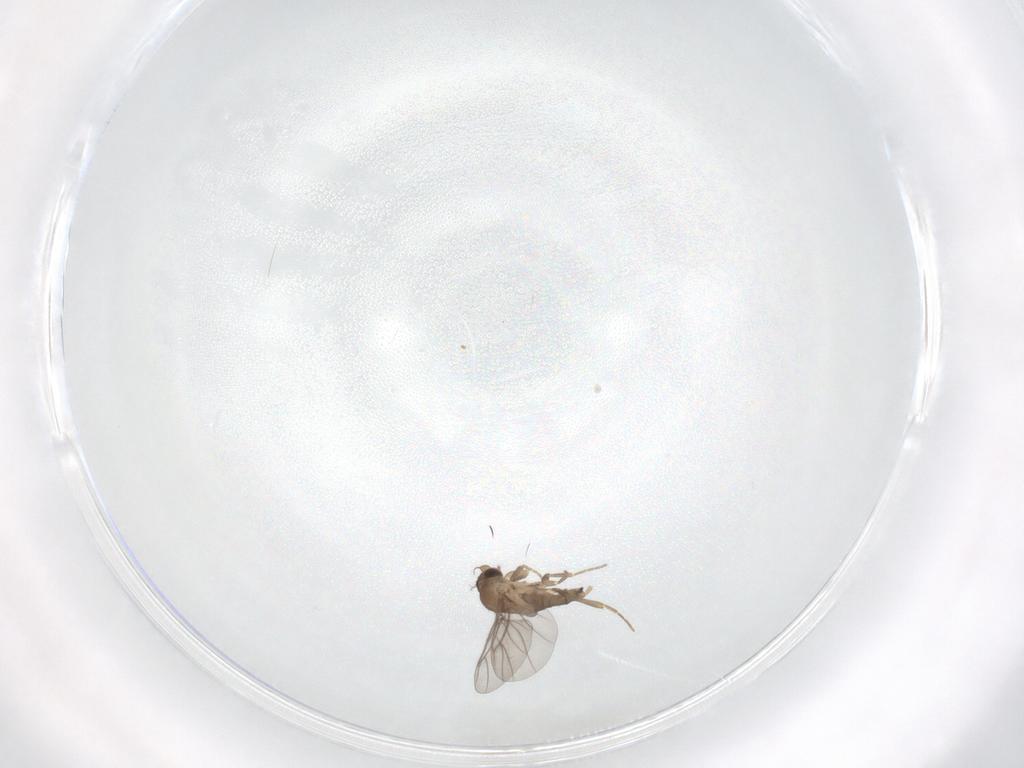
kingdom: Animalia
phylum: Arthropoda
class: Insecta
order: Diptera
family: Limoniidae
